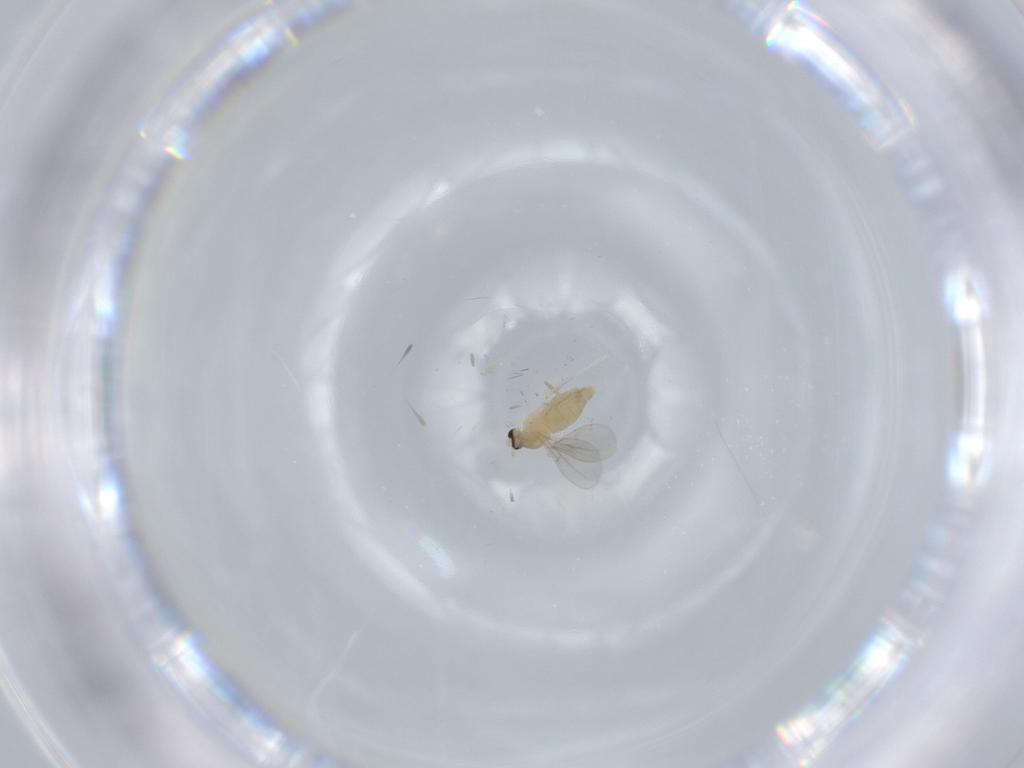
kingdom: Animalia
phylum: Arthropoda
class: Insecta
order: Diptera
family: Cecidomyiidae
